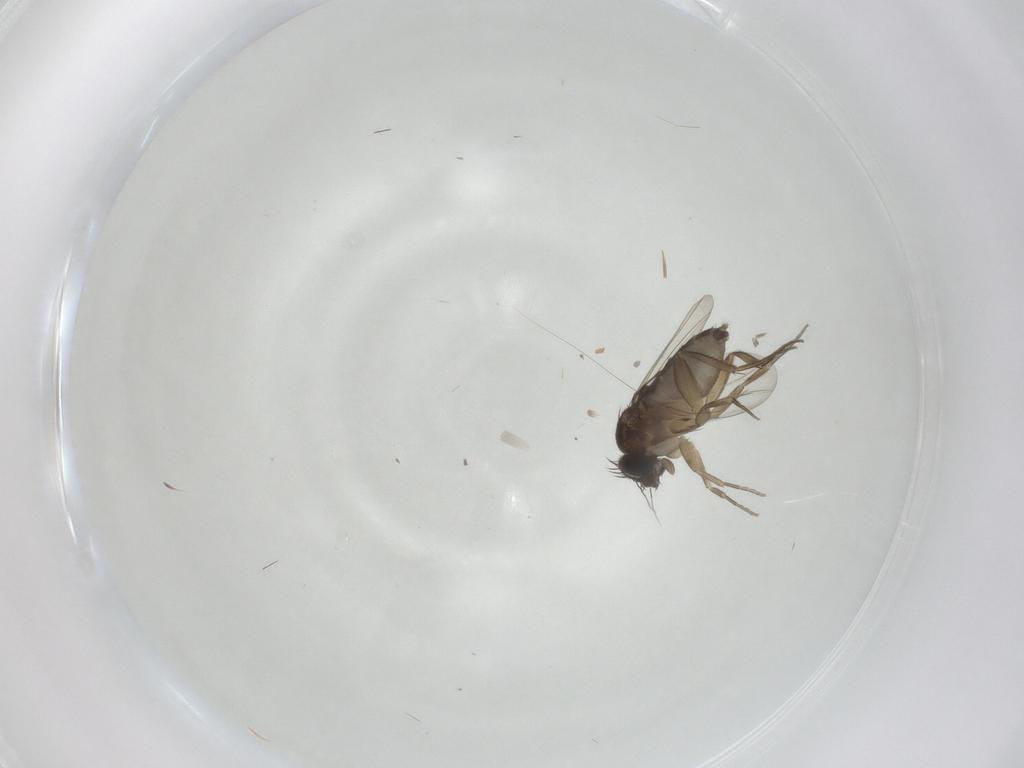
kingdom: Animalia
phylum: Arthropoda
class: Insecta
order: Diptera
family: Phoridae
